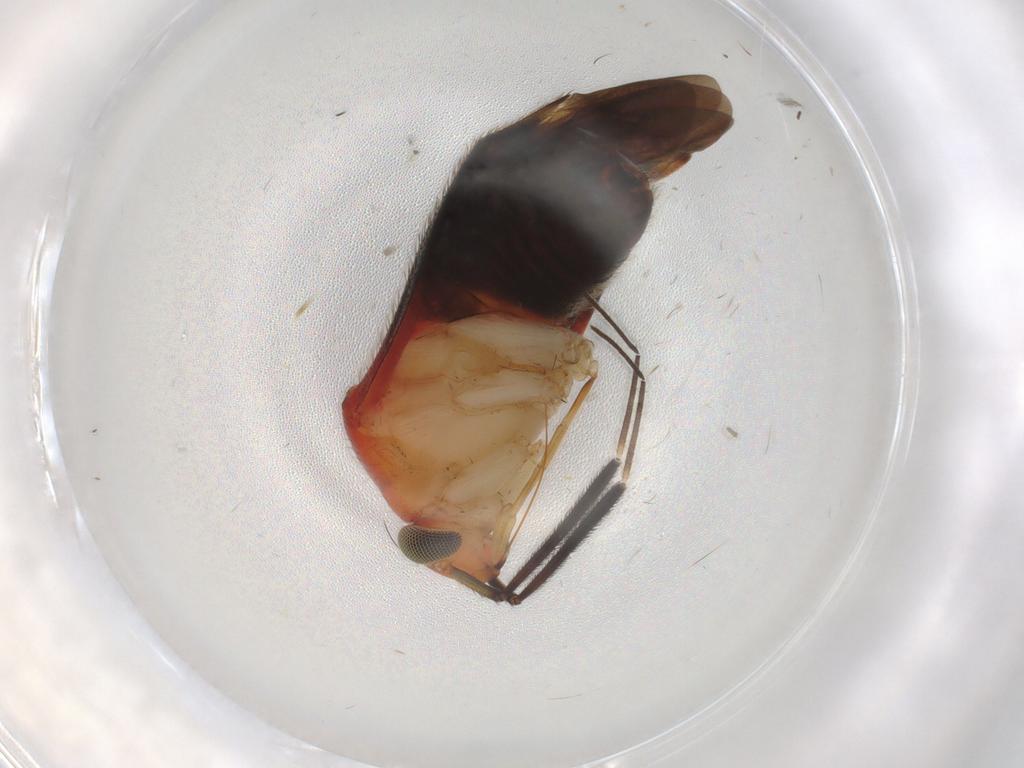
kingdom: Animalia
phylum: Arthropoda
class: Insecta
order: Hemiptera
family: Miridae
